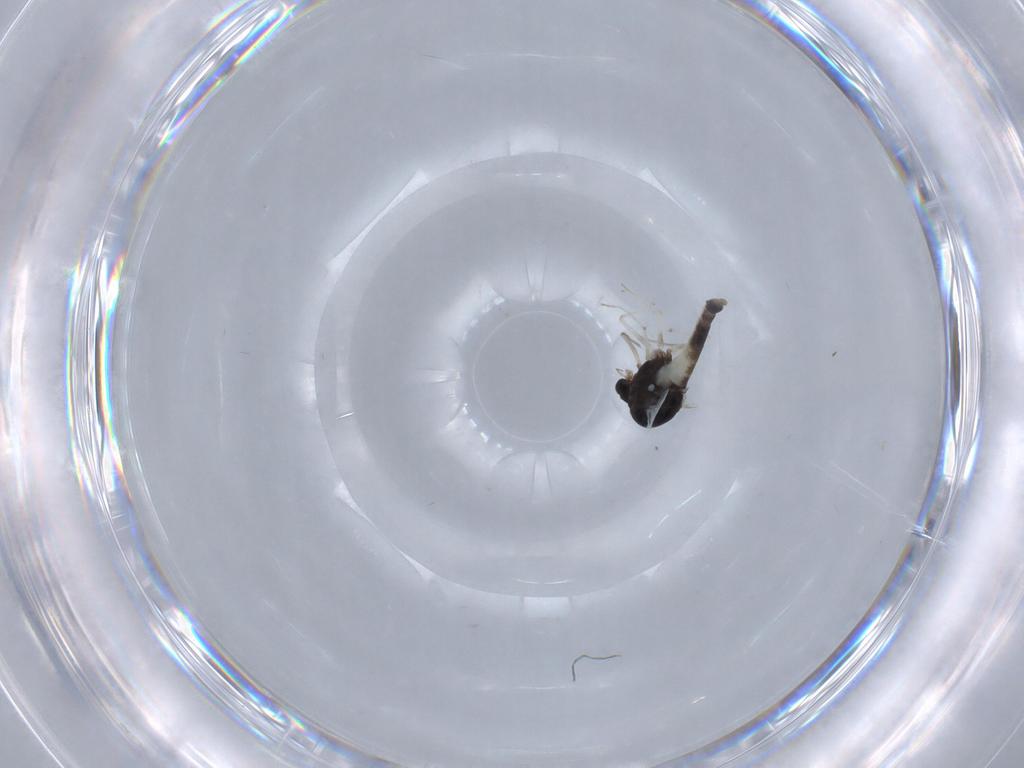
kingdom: Animalia
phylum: Arthropoda
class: Insecta
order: Diptera
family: Chironomidae
